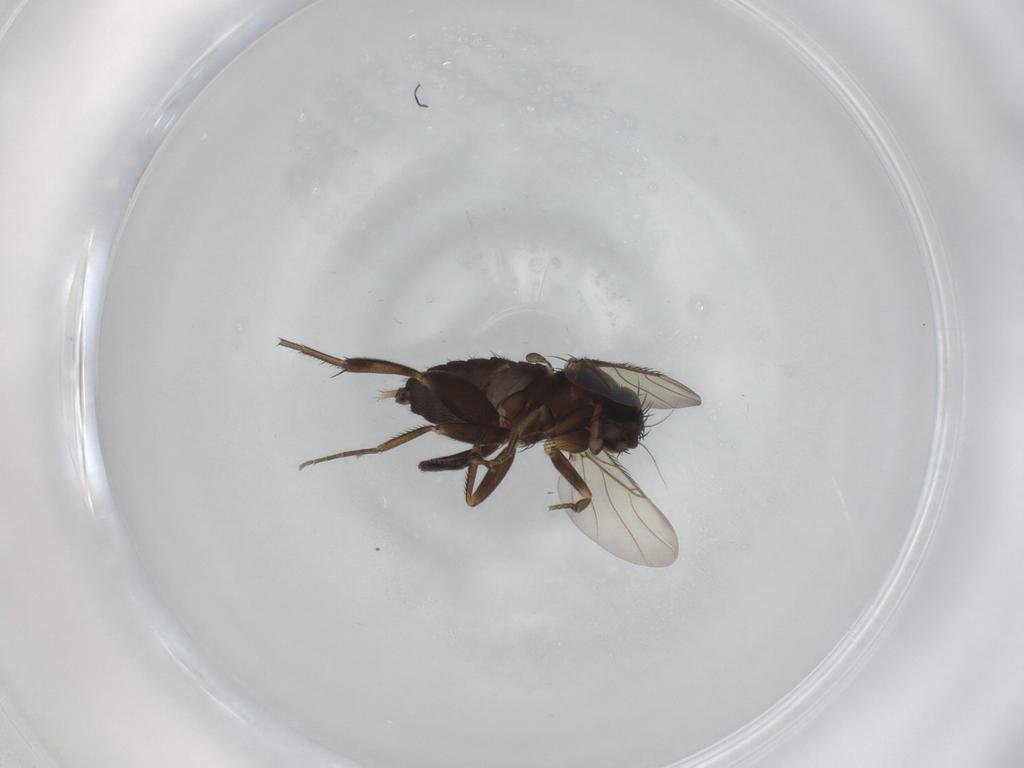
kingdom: Animalia
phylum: Arthropoda
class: Insecta
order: Diptera
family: Phoridae
